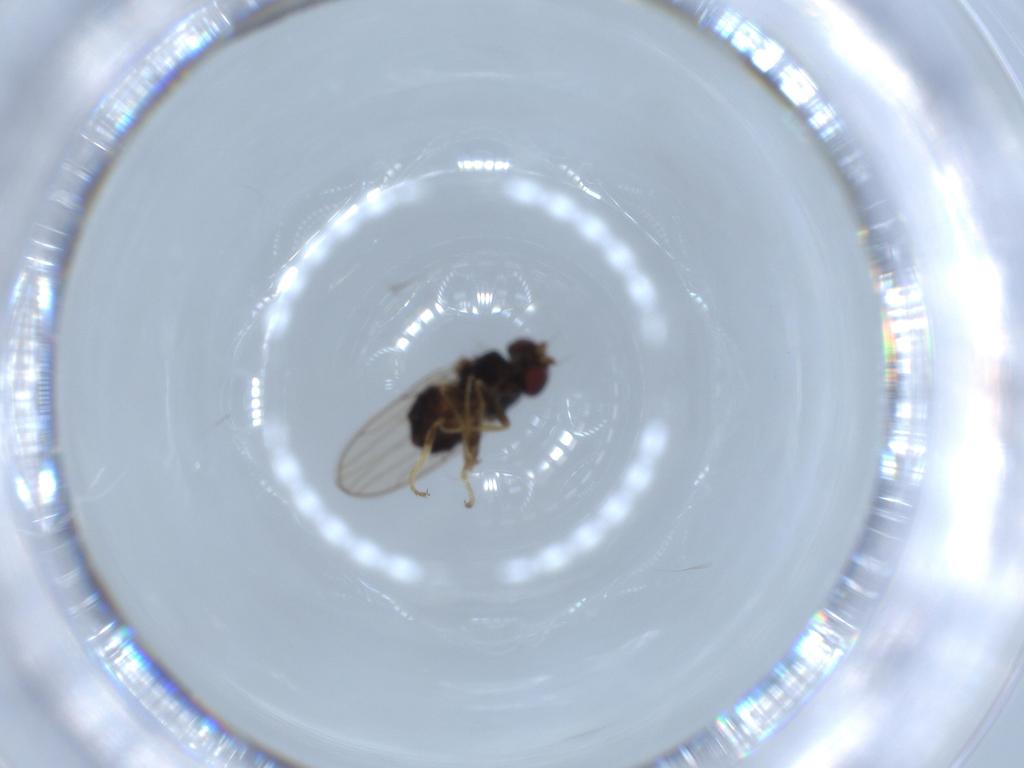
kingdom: Animalia
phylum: Arthropoda
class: Insecta
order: Diptera
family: Chloropidae
